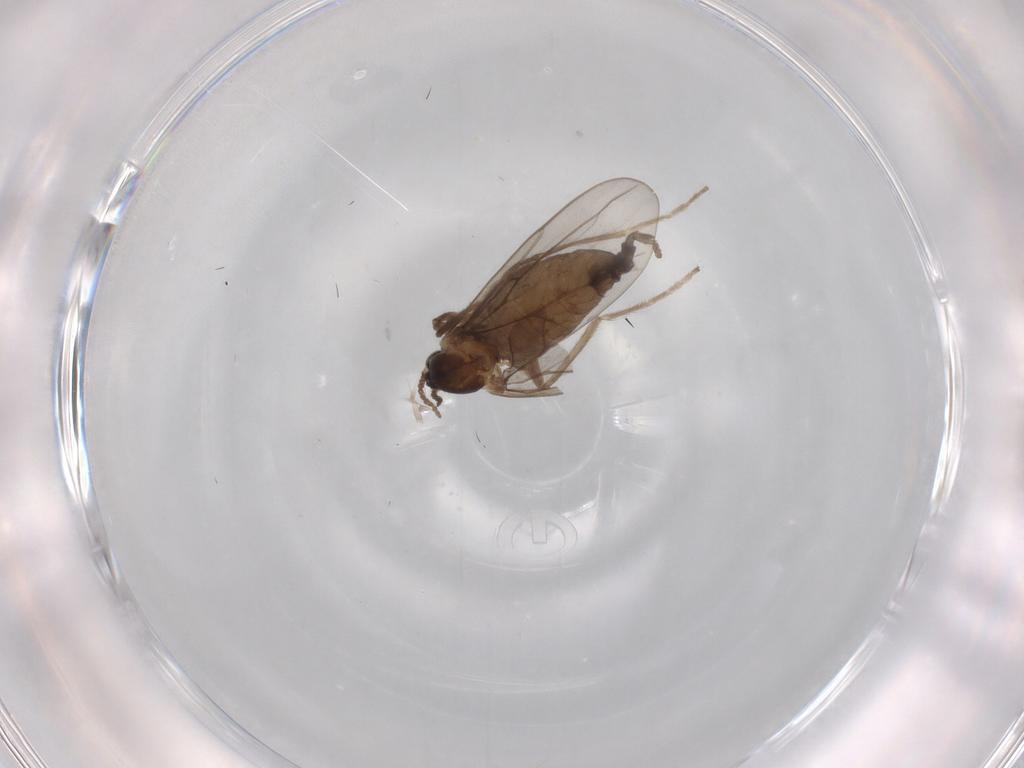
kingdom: Animalia
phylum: Arthropoda
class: Insecta
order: Diptera
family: Cecidomyiidae
